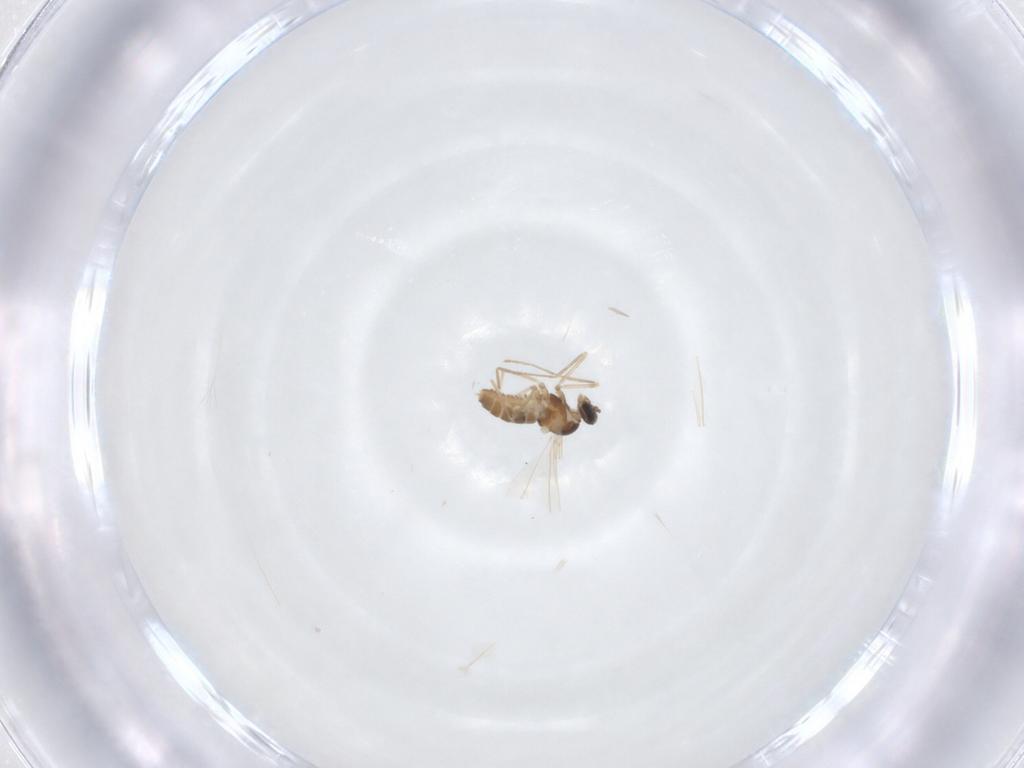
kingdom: Animalia
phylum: Arthropoda
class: Insecta
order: Diptera
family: Cecidomyiidae
